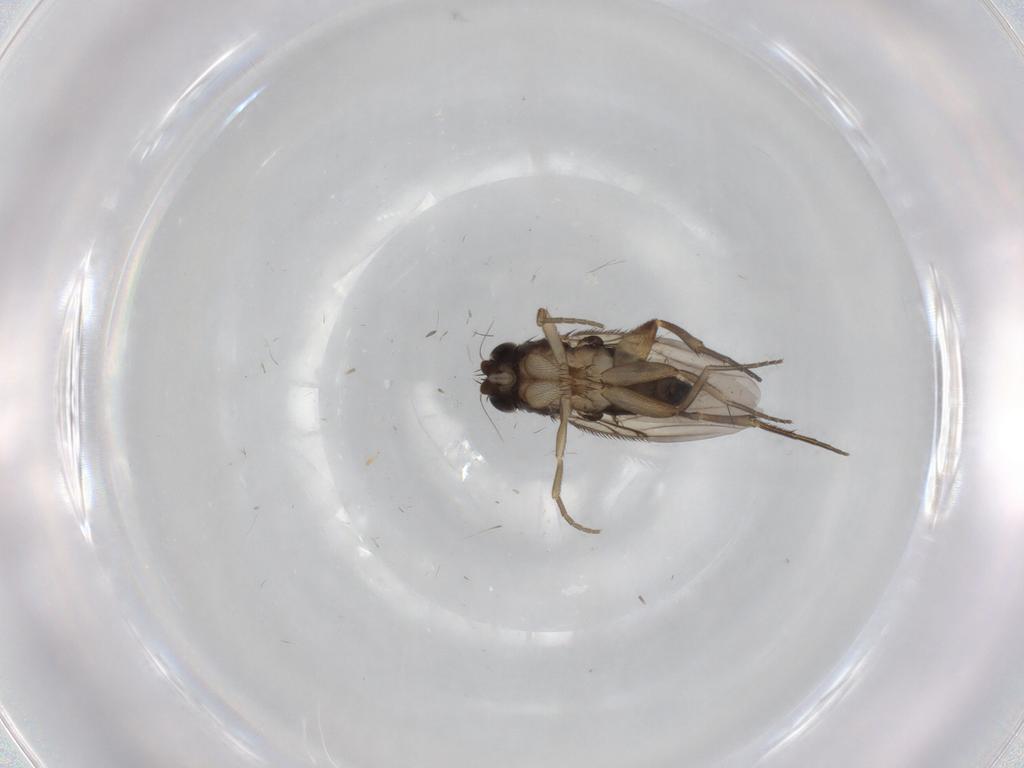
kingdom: Animalia
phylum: Arthropoda
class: Insecta
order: Diptera
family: Phoridae
